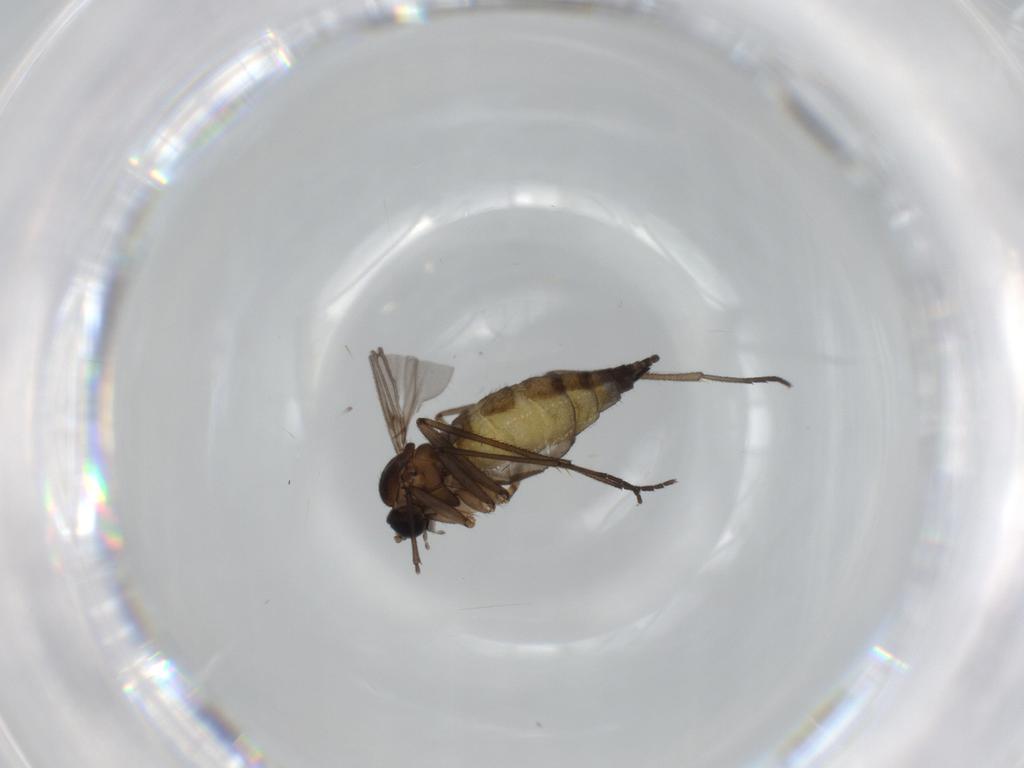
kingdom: Animalia
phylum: Arthropoda
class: Insecta
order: Diptera
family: Sciaridae
